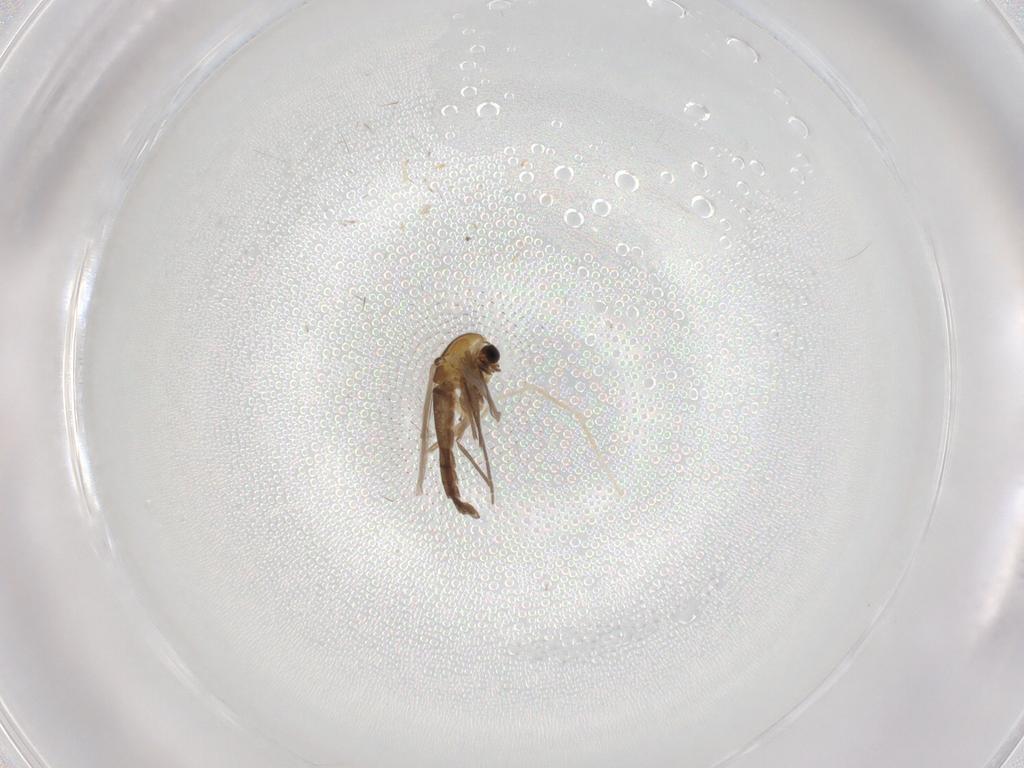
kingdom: Animalia
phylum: Arthropoda
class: Insecta
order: Diptera
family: Chironomidae
